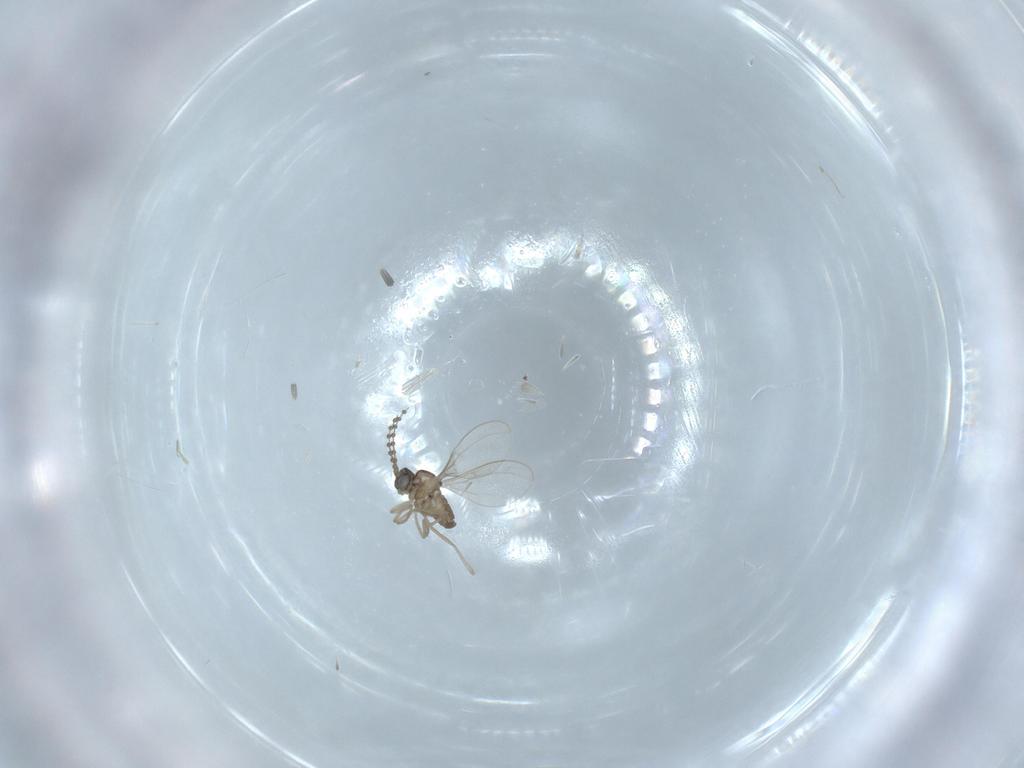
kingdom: Animalia
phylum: Arthropoda
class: Insecta
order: Diptera
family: Cecidomyiidae
